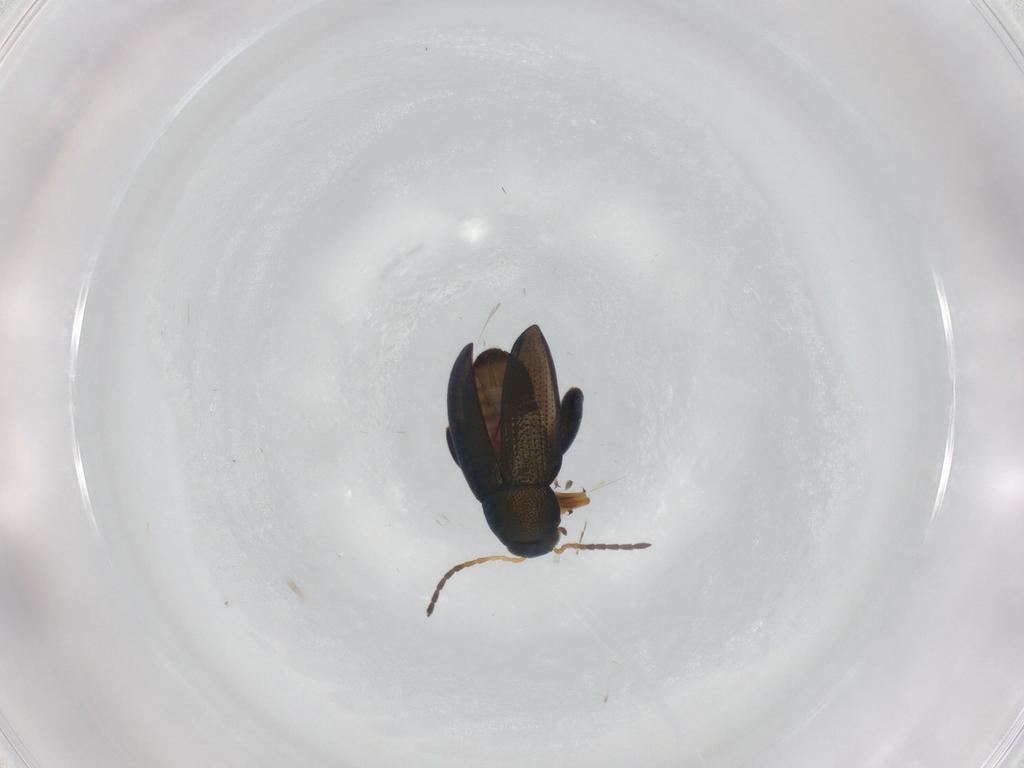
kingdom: Animalia
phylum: Arthropoda
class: Insecta
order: Coleoptera
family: Chrysomelidae
